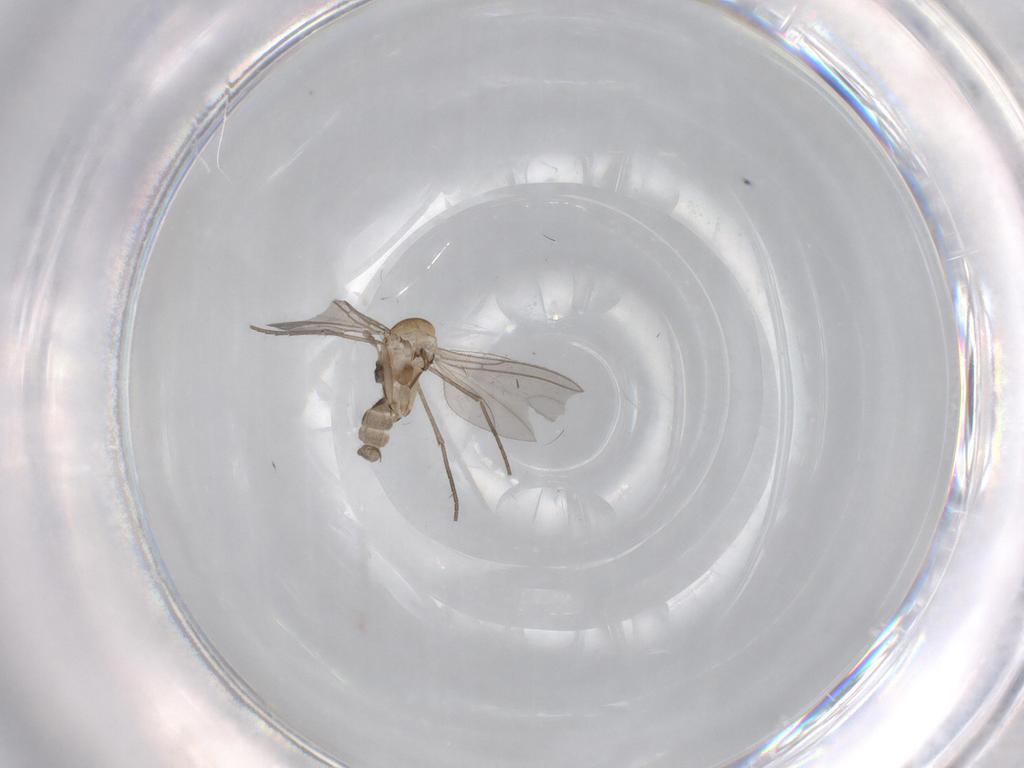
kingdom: Animalia
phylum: Arthropoda
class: Insecta
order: Diptera
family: Sciaridae
